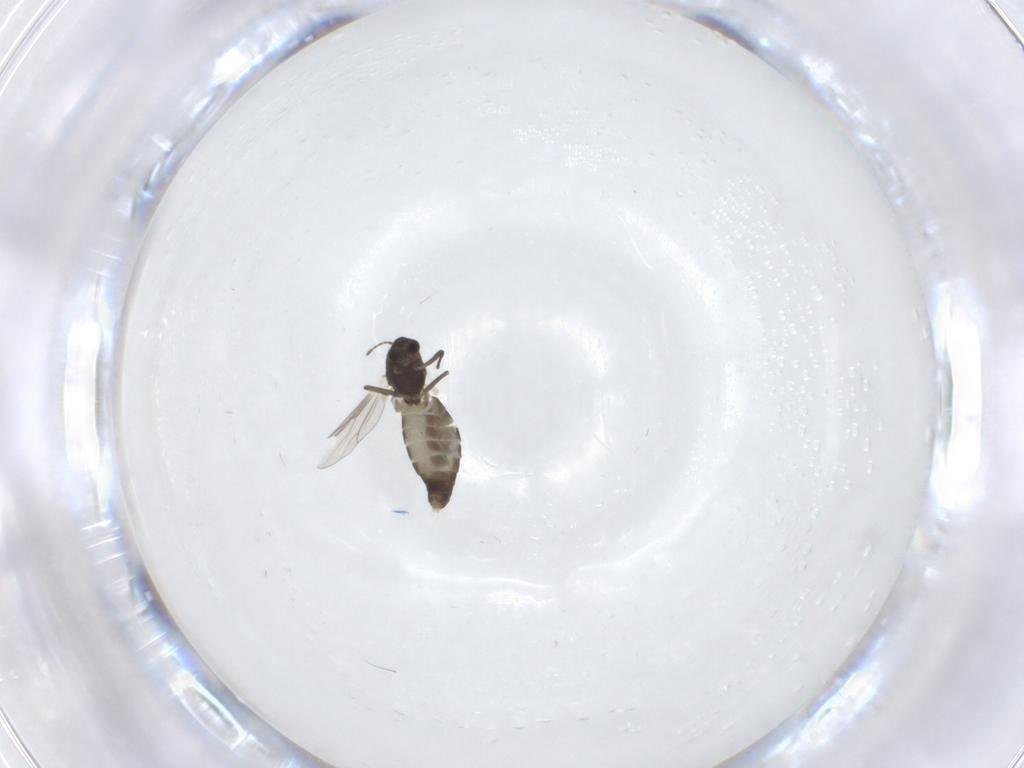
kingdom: Animalia
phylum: Arthropoda
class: Insecta
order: Diptera
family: Chironomidae
